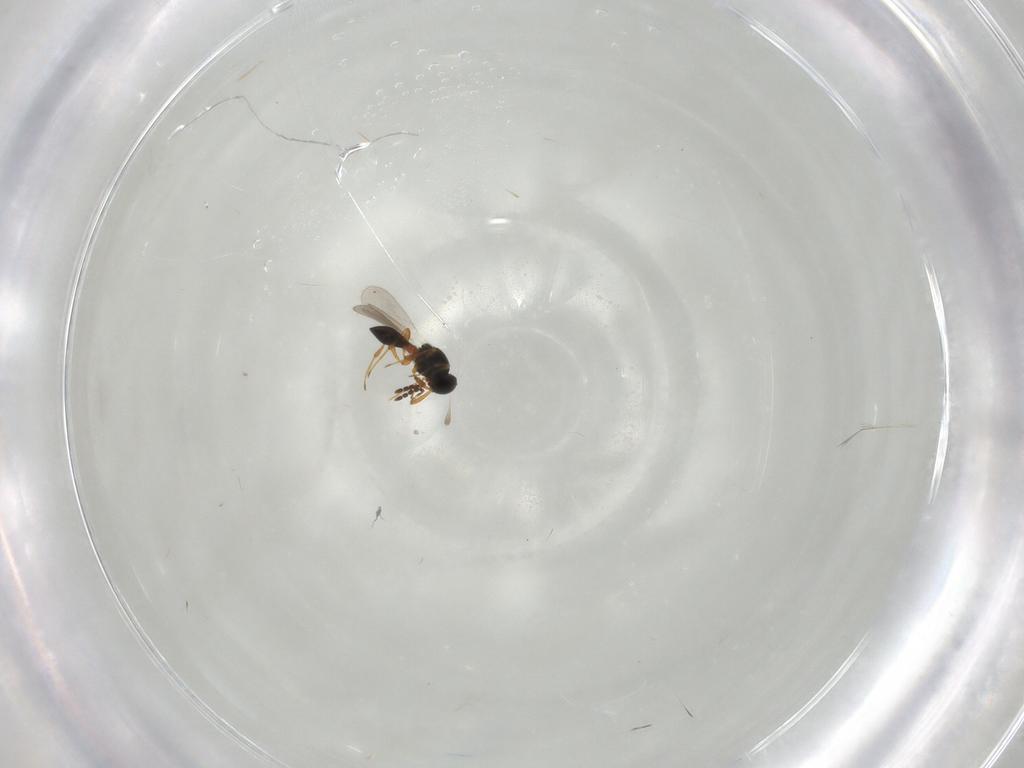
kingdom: Animalia
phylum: Arthropoda
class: Insecta
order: Hymenoptera
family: Platygastridae
